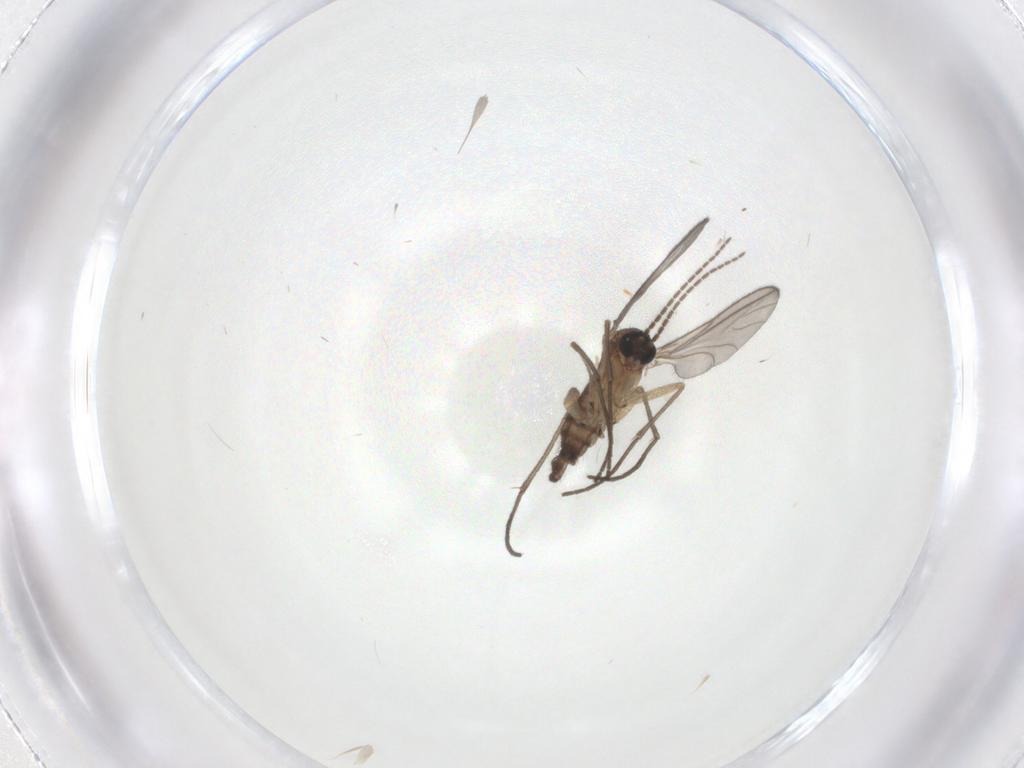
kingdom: Animalia
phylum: Arthropoda
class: Insecta
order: Diptera
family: Sciaridae
